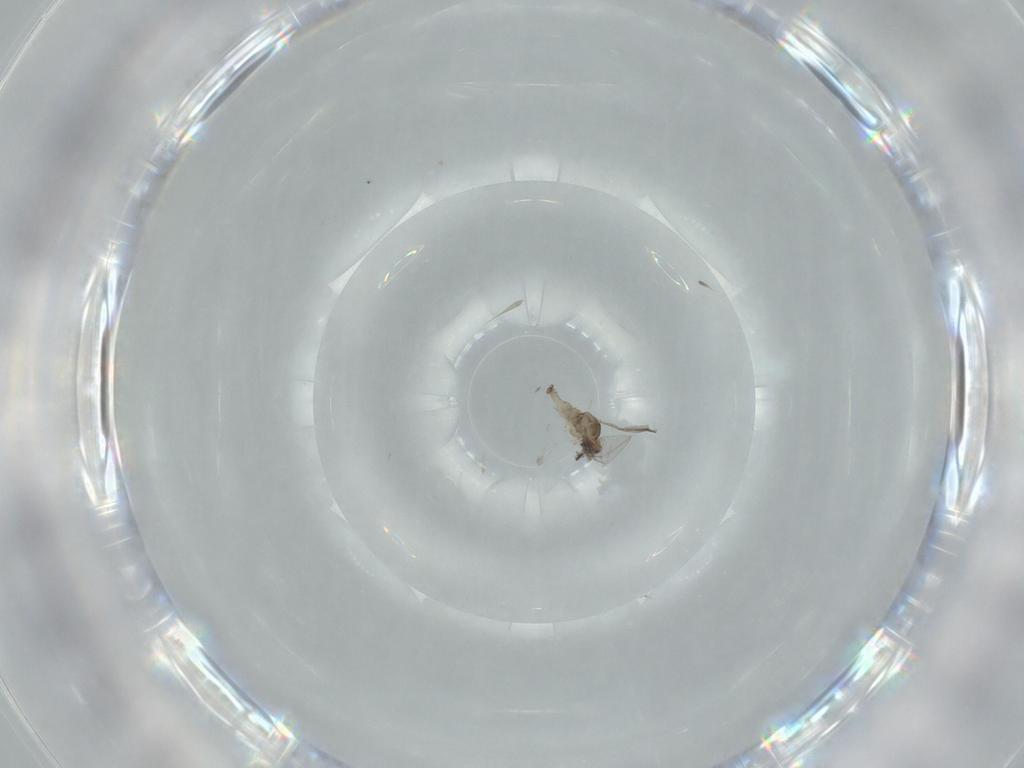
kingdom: Animalia
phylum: Arthropoda
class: Insecta
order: Diptera
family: Cecidomyiidae
